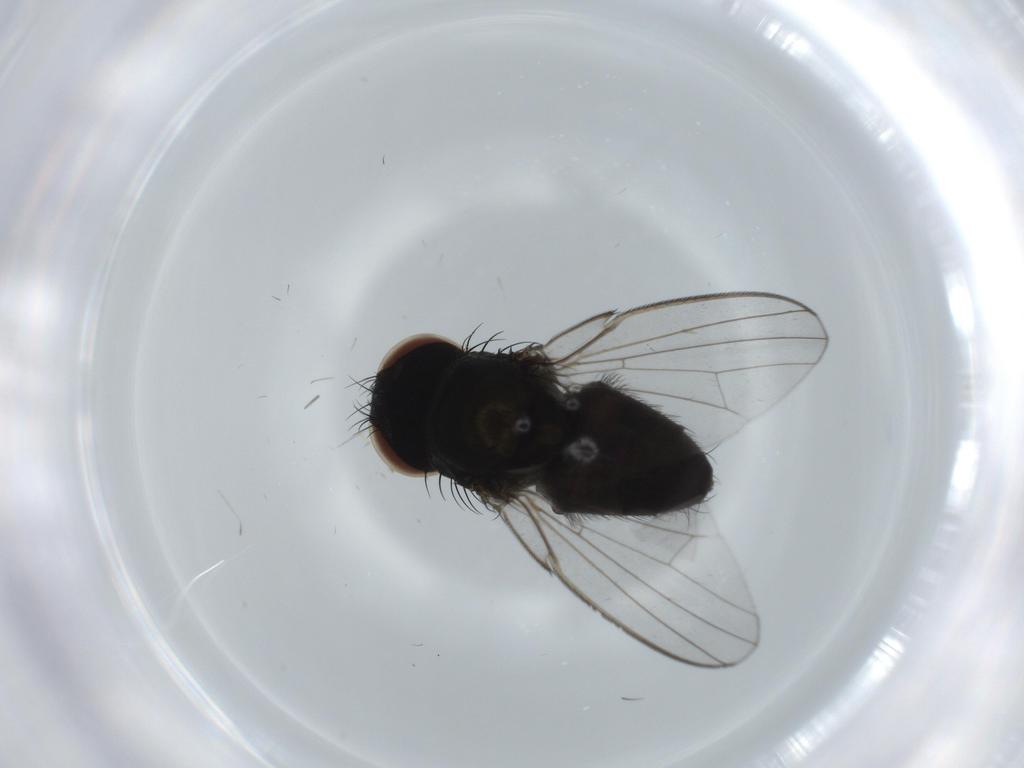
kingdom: Animalia
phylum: Arthropoda
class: Insecta
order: Diptera
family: Milichiidae
